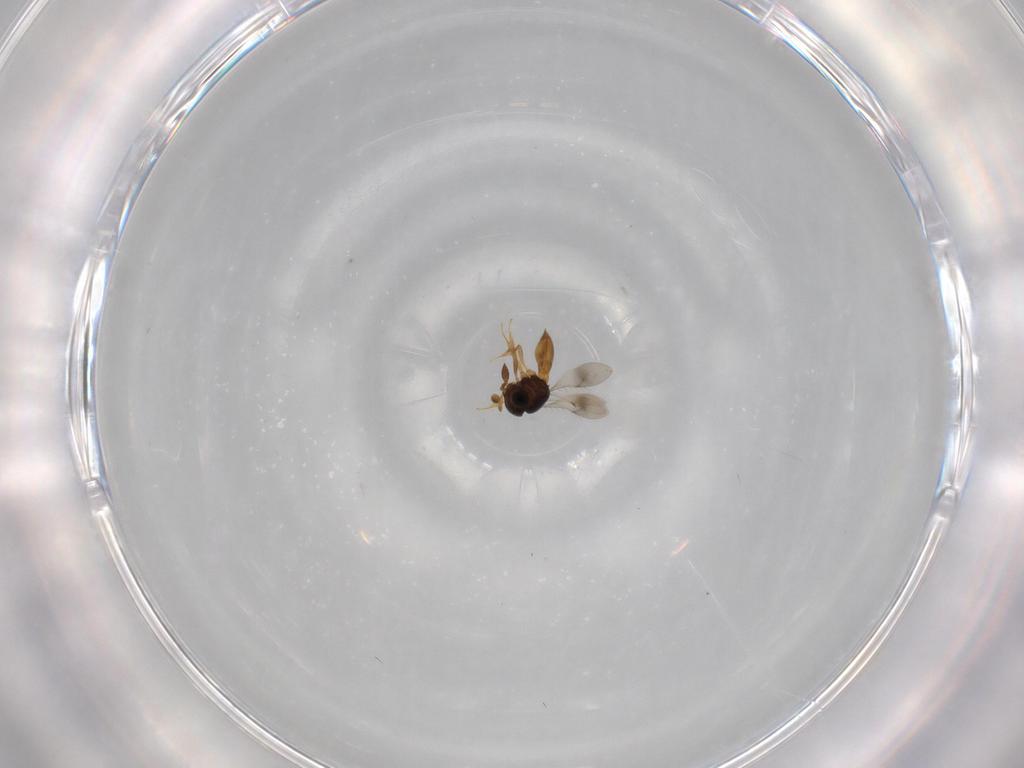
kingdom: Animalia
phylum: Arthropoda
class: Insecta
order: Hymenoptera
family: Scelionidae
